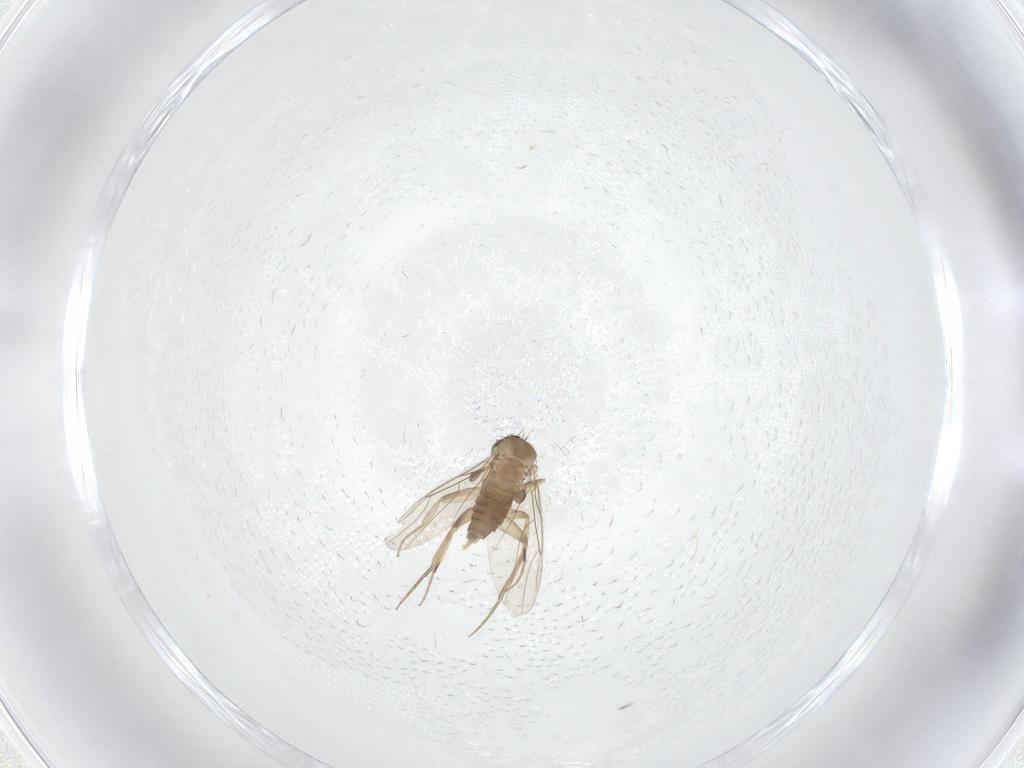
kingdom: Animalia
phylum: Arthropoda
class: Insecta
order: Diptera
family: Phoridae
